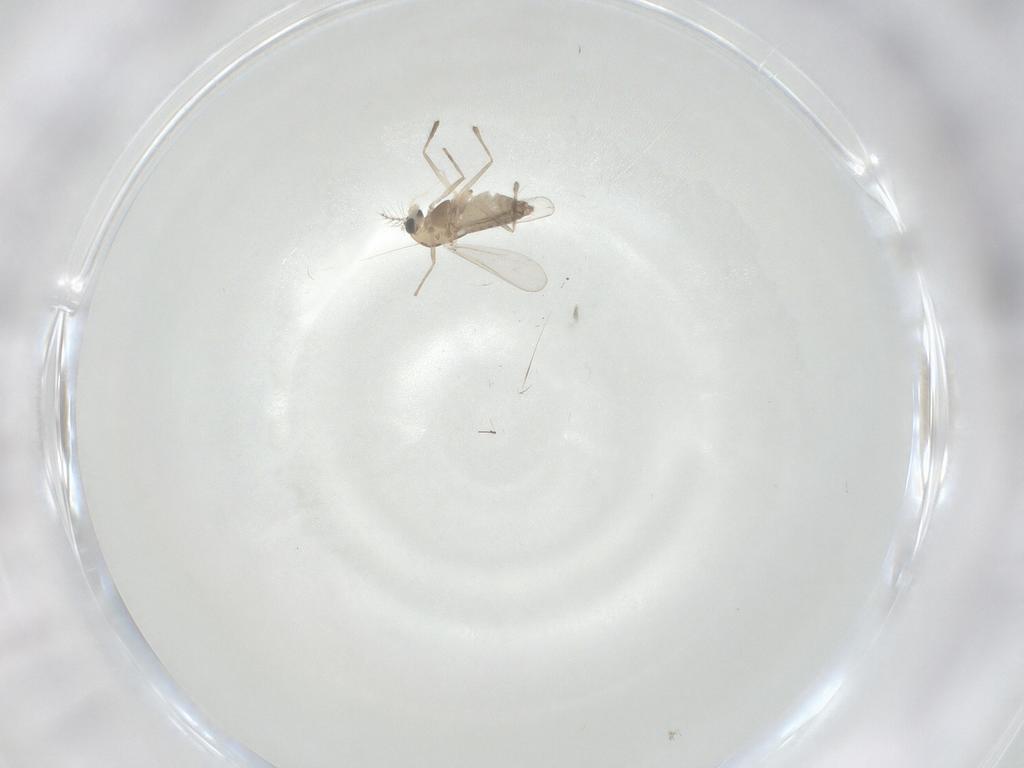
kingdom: Animalia
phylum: Arthropoda
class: Insecta
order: Diptera
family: Chironomidae
